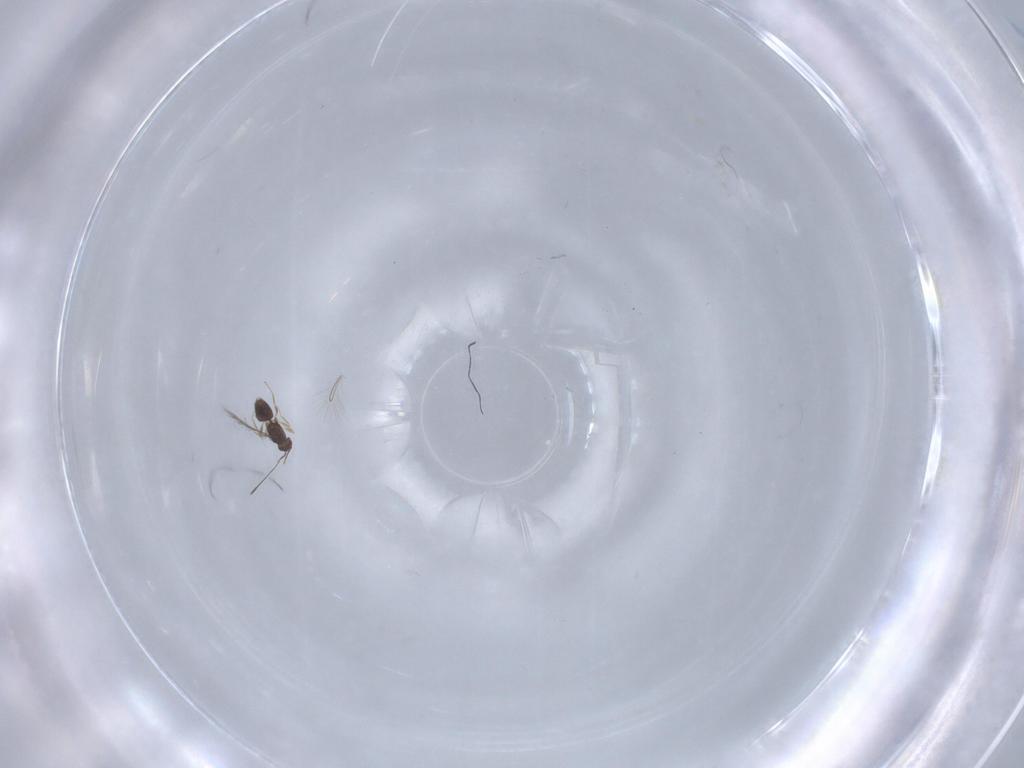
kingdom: Animalia
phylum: Arthropoda
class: Insecta
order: Hymenoptera
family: Mymaridae
